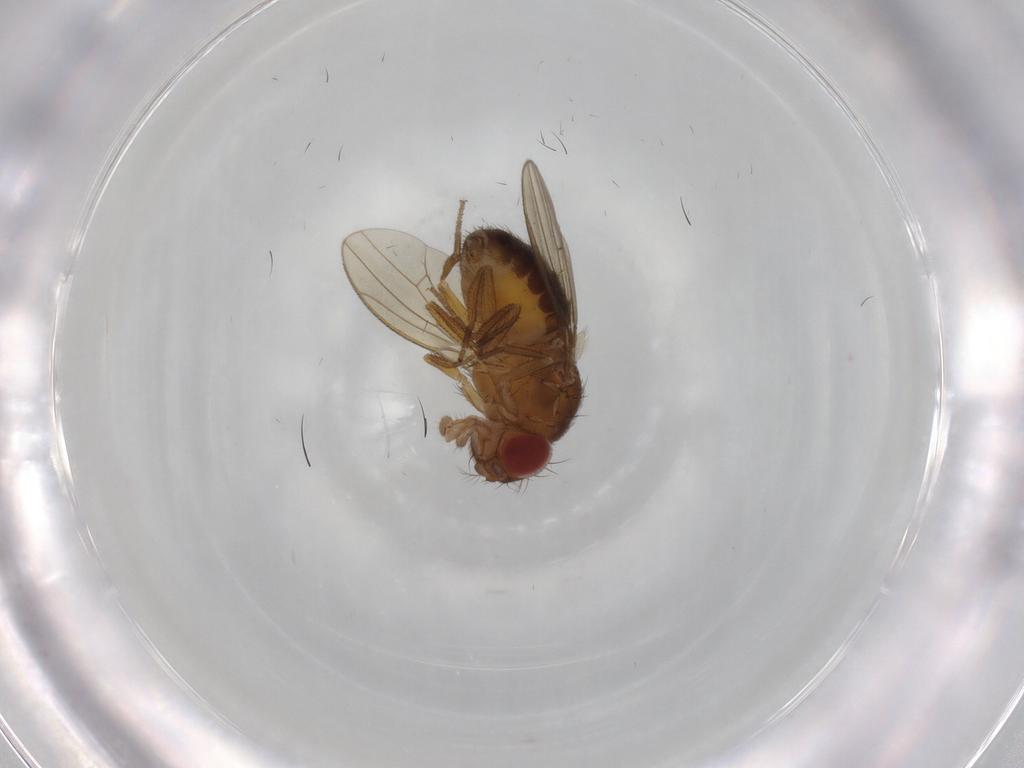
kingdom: Animalia
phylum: Arthropoda
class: Insecta
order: Diptera
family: Drosophilidae
